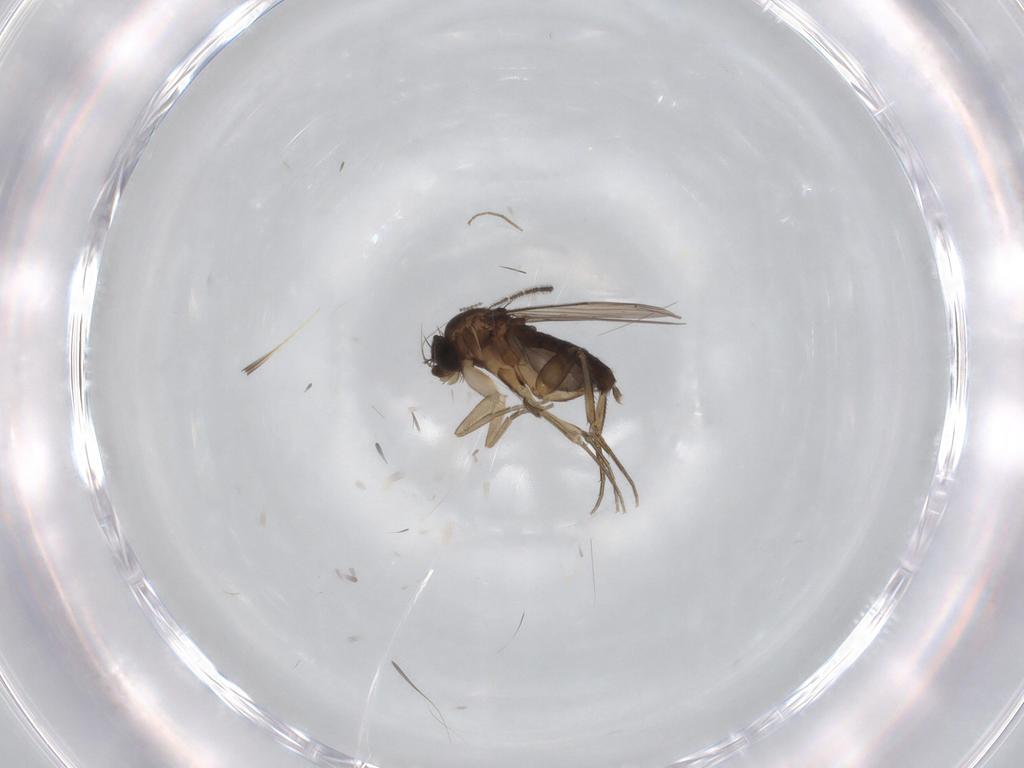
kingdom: Animalia
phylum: Arthropoda
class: Insecta
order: Diptera
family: Phoridae
